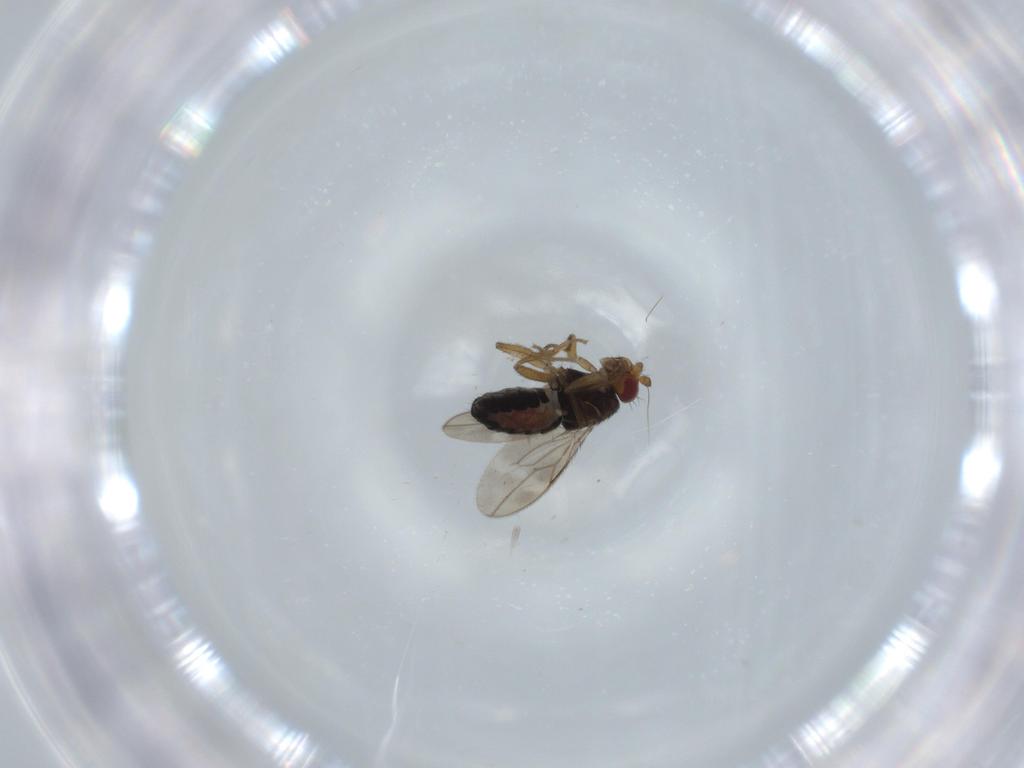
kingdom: Animalia
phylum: Arthropoda
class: Insecta
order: Diptera
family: Sphaeroceridae
